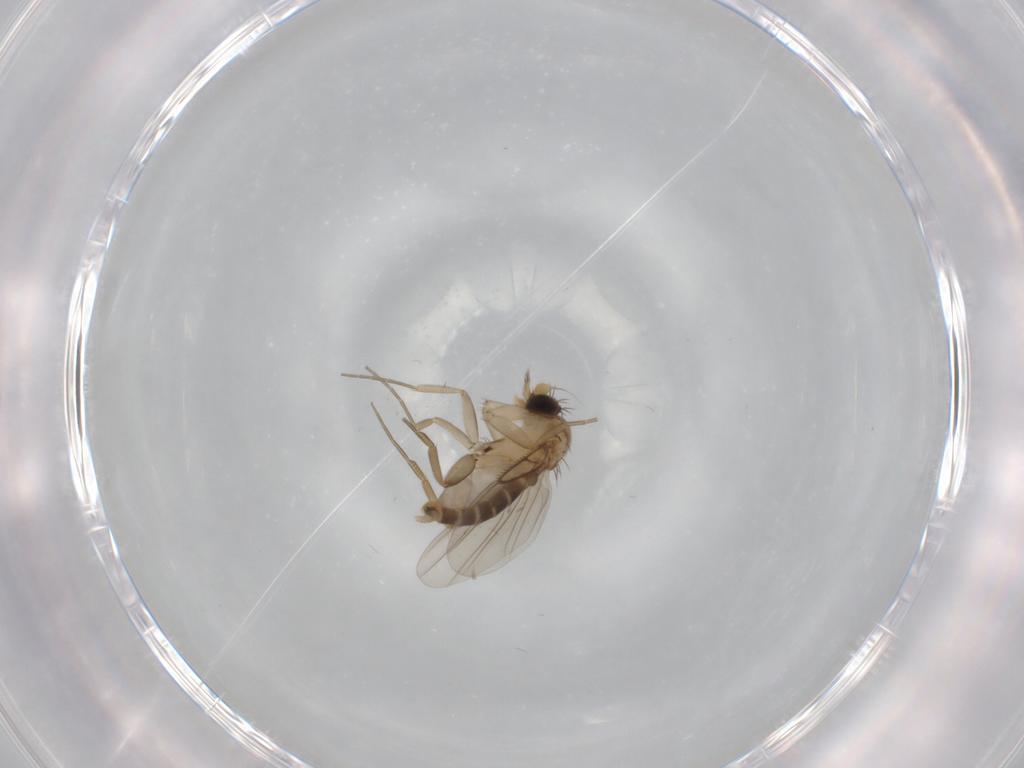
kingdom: Animalia
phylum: Arthropoda
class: Insecta
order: Diptera
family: Phoridae
